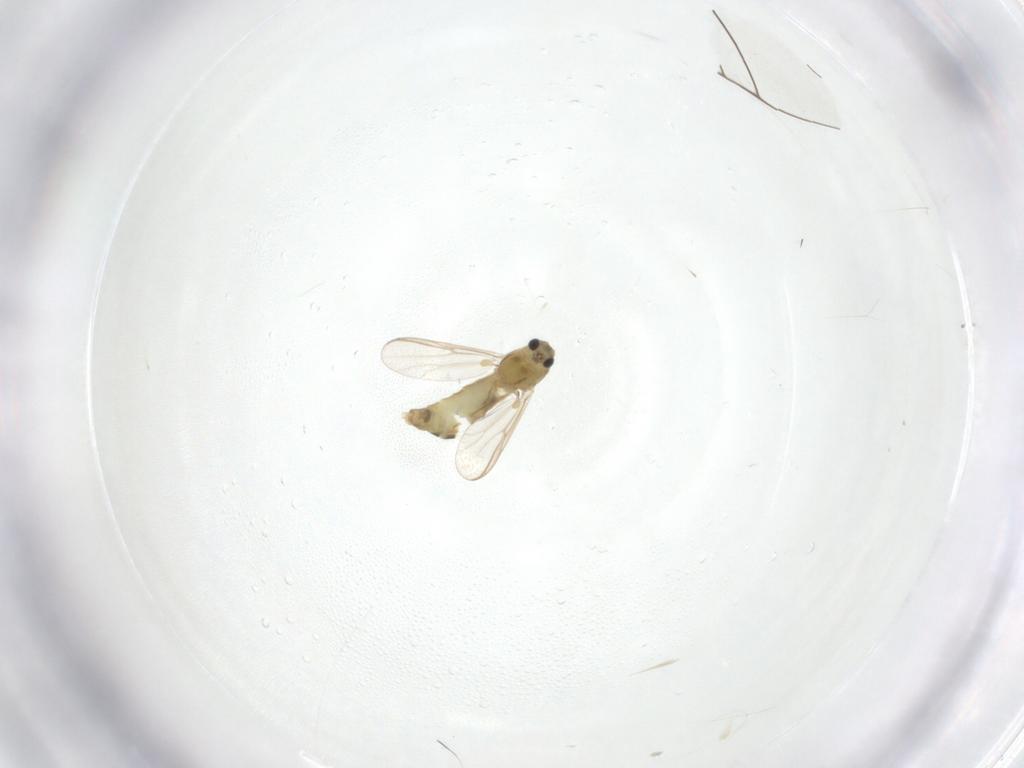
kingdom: Animalia
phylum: Arthropoda
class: Insecta
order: Diptera
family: Chironomidae
